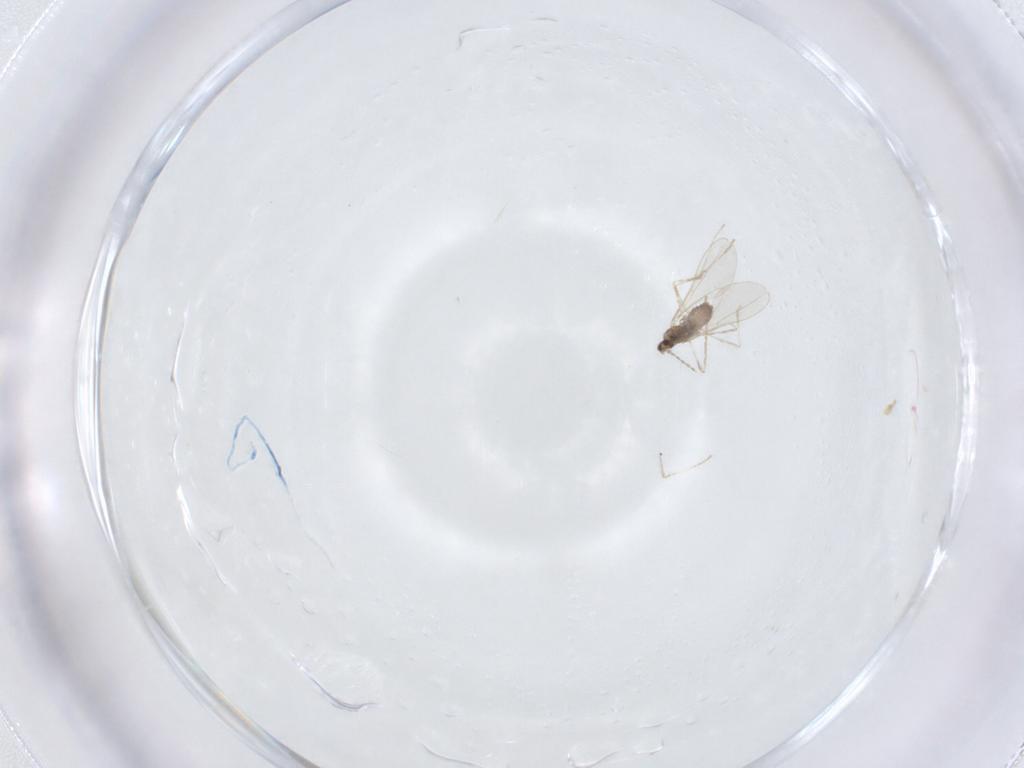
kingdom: Animalia
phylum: Arthropoda
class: Insecta
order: Diptera
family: Cecidomyiidae
